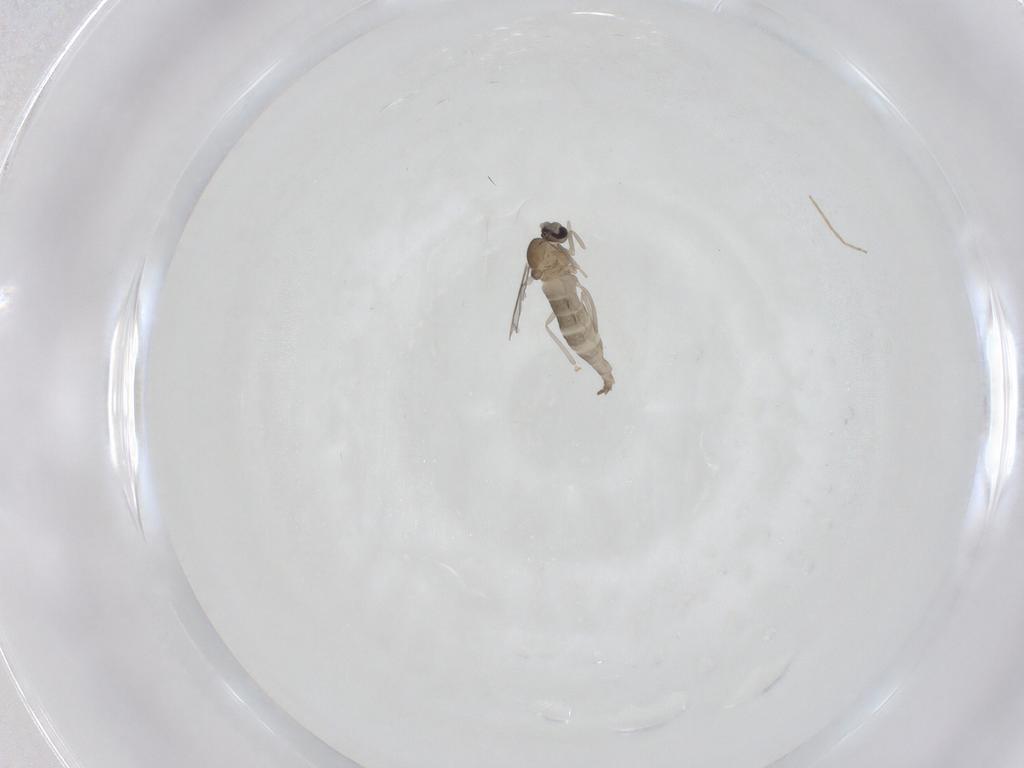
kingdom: Animalia
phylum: Arthropoda
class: Insecta
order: Diptera
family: Cecidomyiidae
